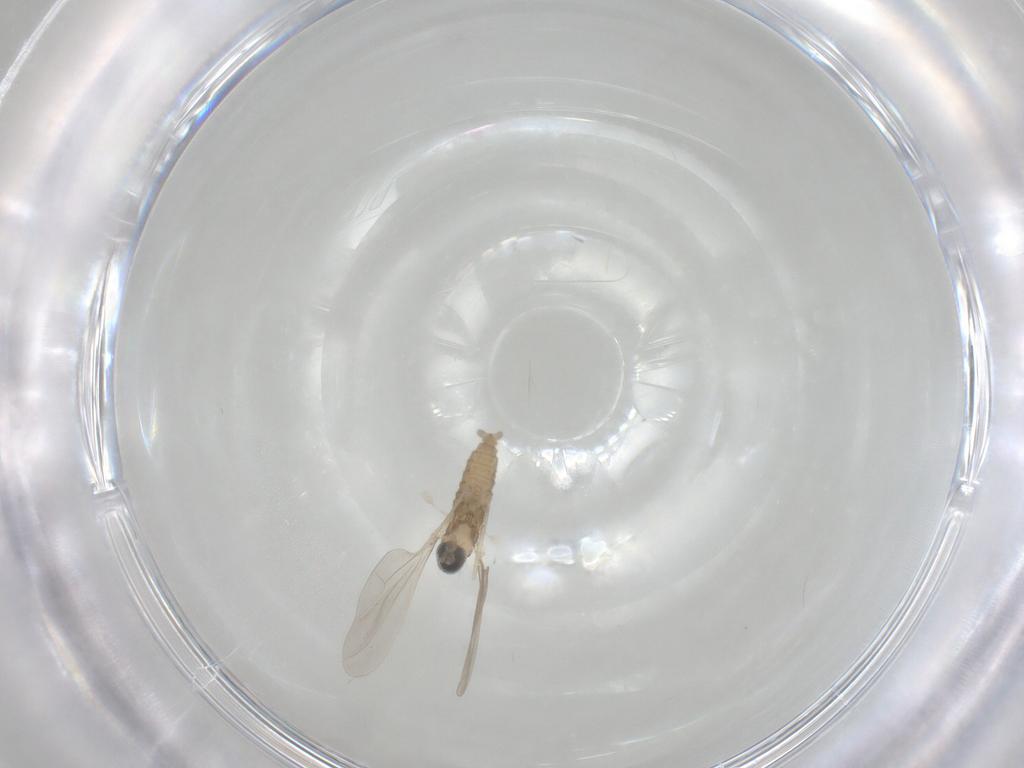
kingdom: Animalia
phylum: Arthropoda
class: Insecta
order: Diptera
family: Cecidomyiidae
